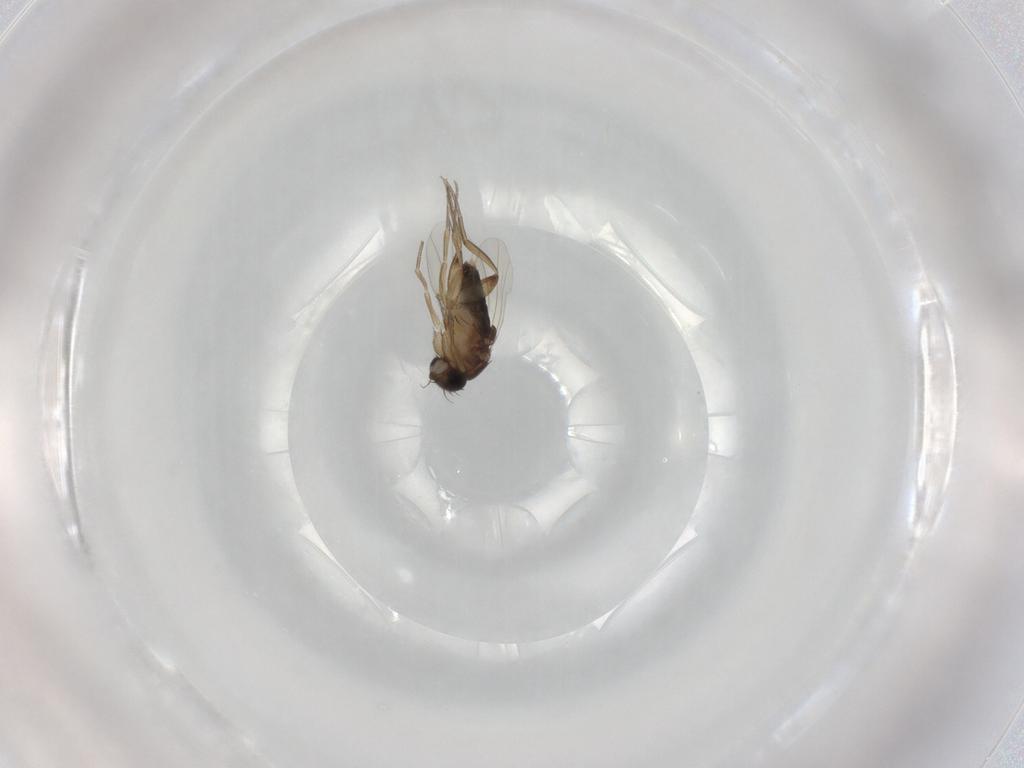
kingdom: Animalia
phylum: Arthropoda
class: Insecta
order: Diptera
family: Phoridae
